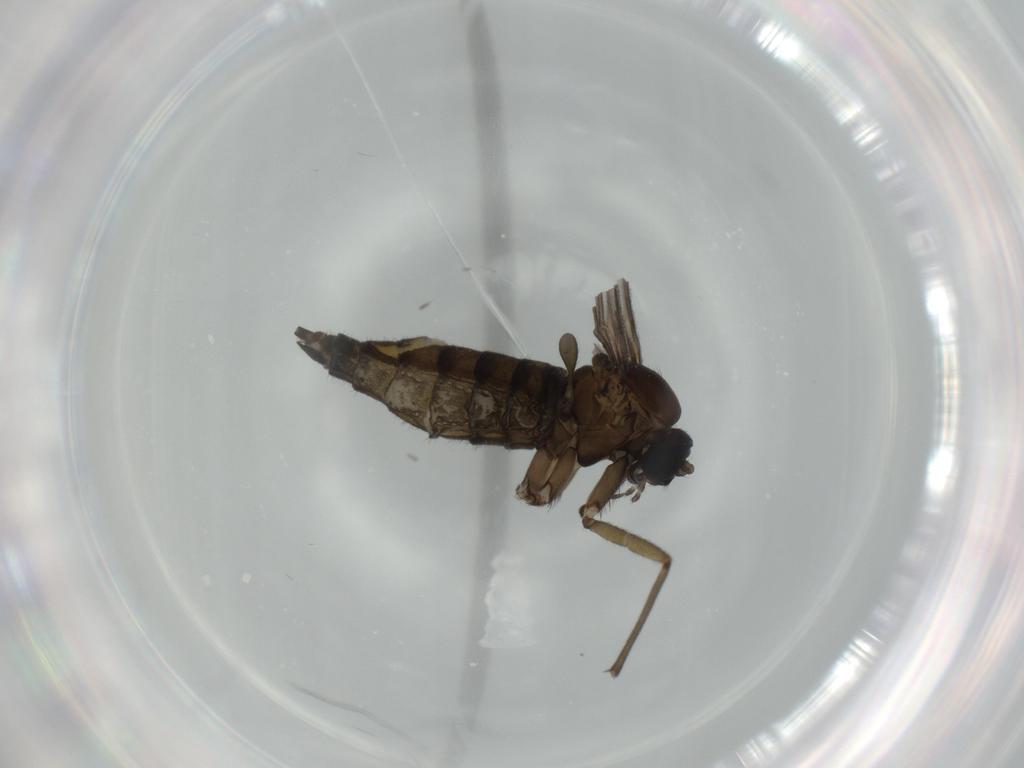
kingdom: Animalia
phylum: Arthropoda
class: Insecta
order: Diptera
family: Sciaridae
